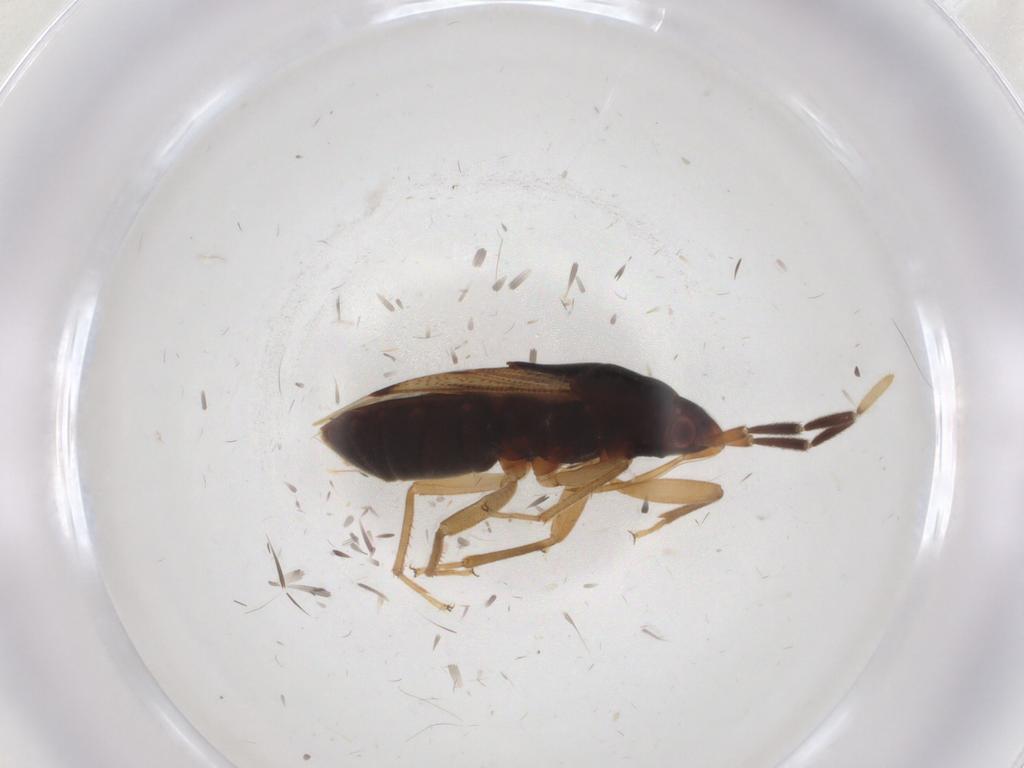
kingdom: Animalia
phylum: Arthropoda
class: Insecta
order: Hemiptera
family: Rhyparochromidae
